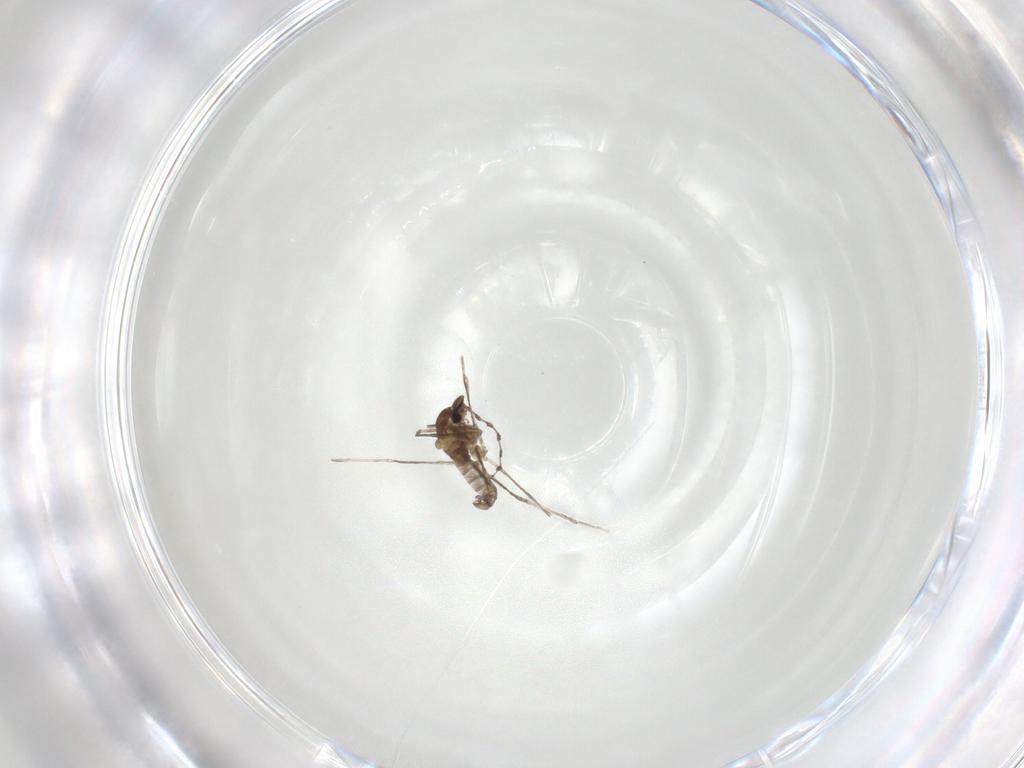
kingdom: Animalia
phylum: Arthropoda
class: Insecta
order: Diptera
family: Cecidomyiidae
